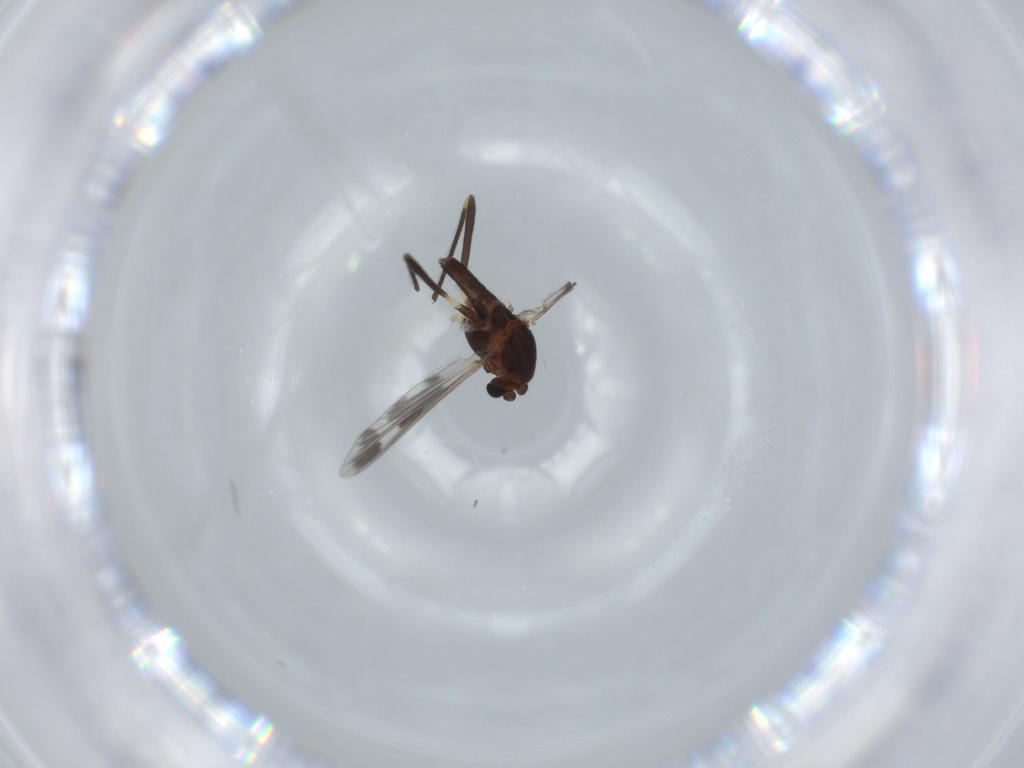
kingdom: Animalia
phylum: Arthropoda
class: Insecta
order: Diptera
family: Chironomidae
